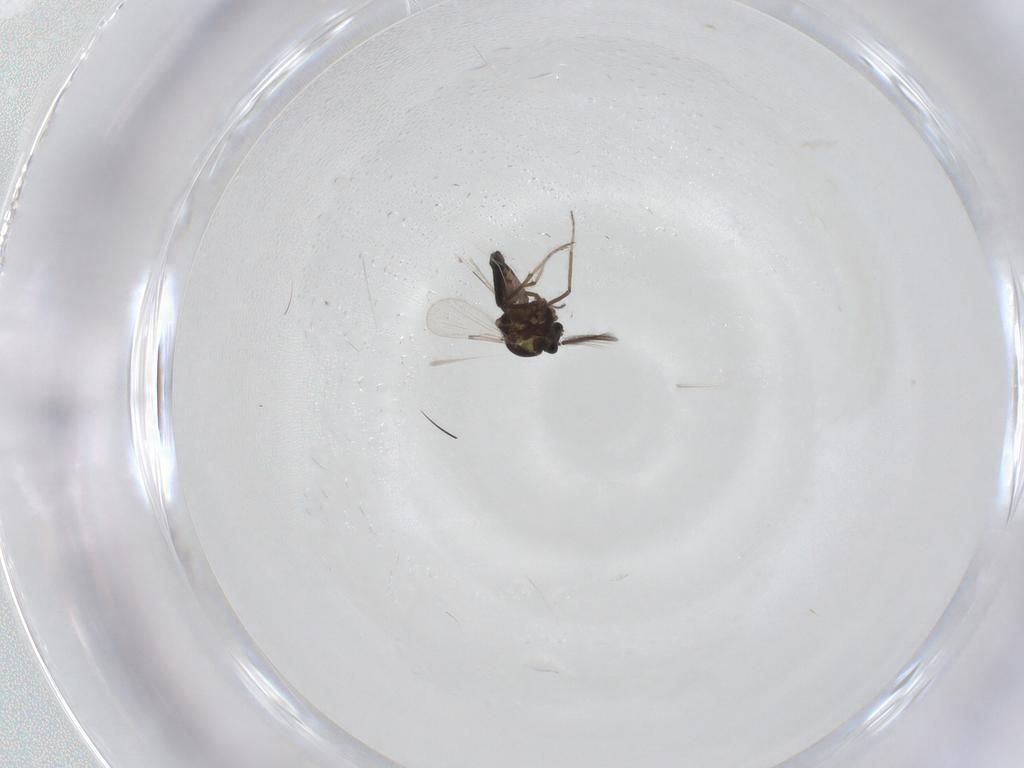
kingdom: Animalia
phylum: Arthropoda
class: Insecta
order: Diptera
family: Ceratopogonidae
